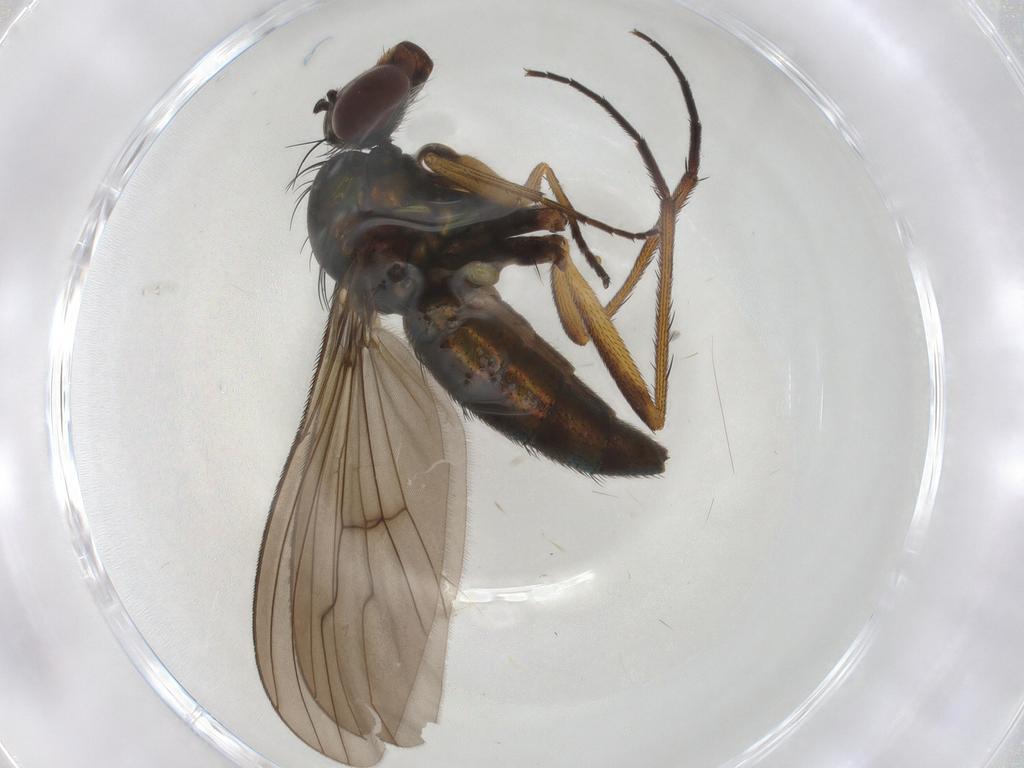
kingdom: Animalia
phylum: Arthropoda
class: Insecta
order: Diptera
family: Dolichopodidae
